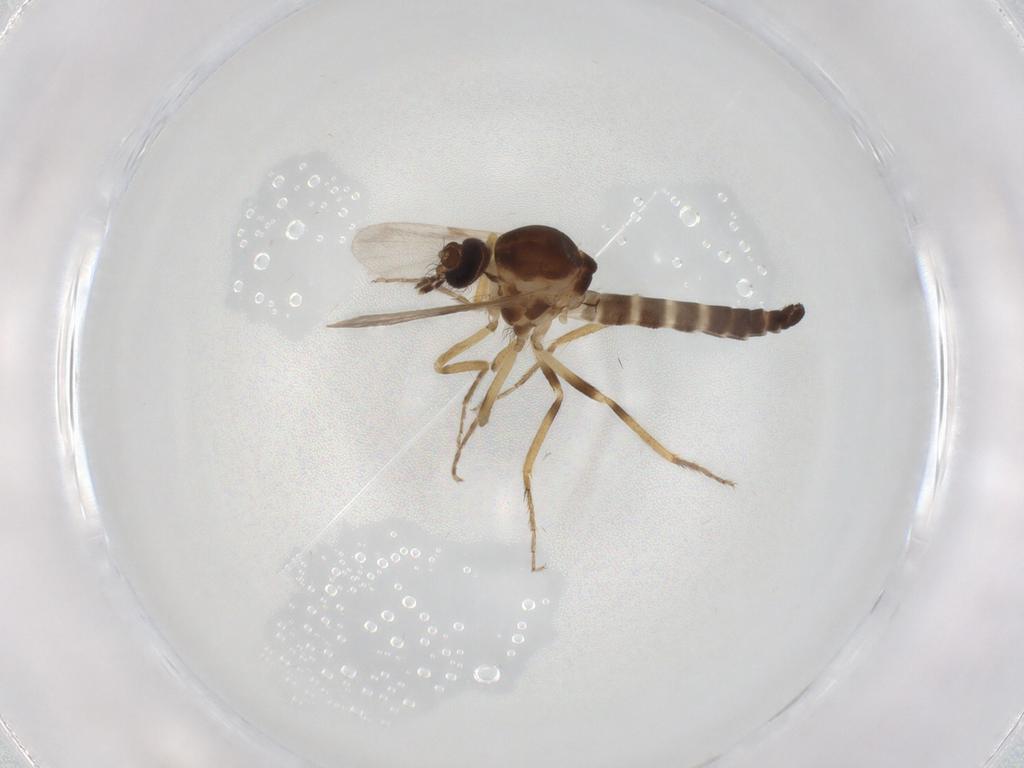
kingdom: Animalia
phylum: Arthropoda
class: Insecta
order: Diptera
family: Ceratopogonidae
